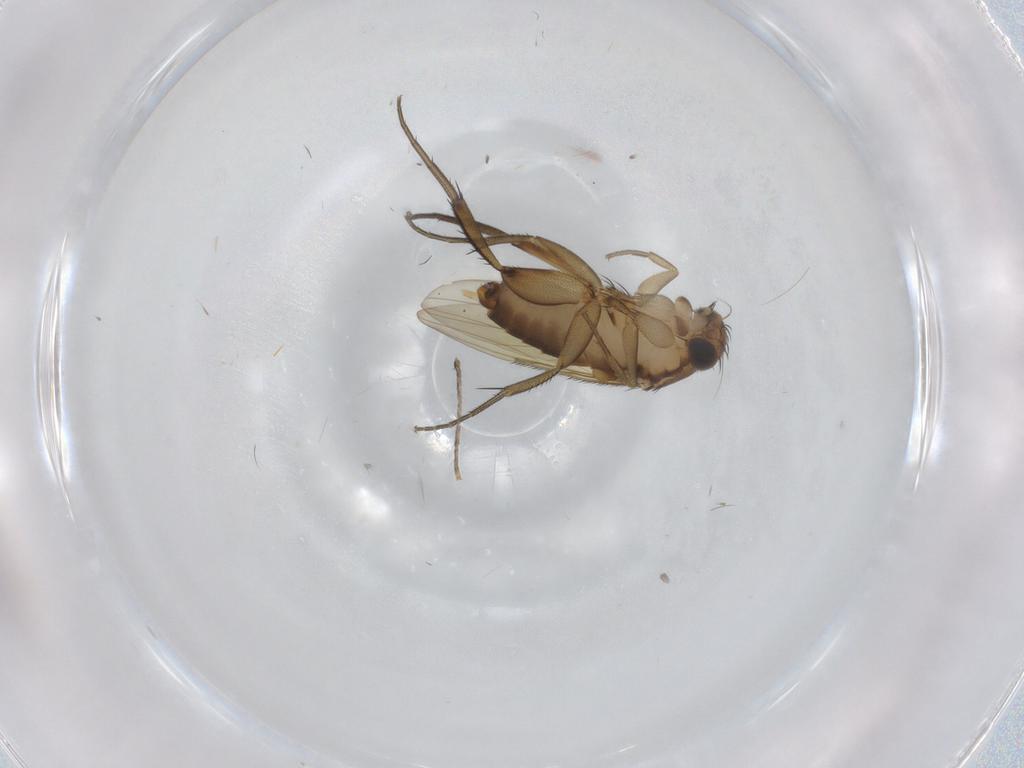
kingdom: Animalia
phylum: Arthropoda
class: Insecta
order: Diptera
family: Phoridae
